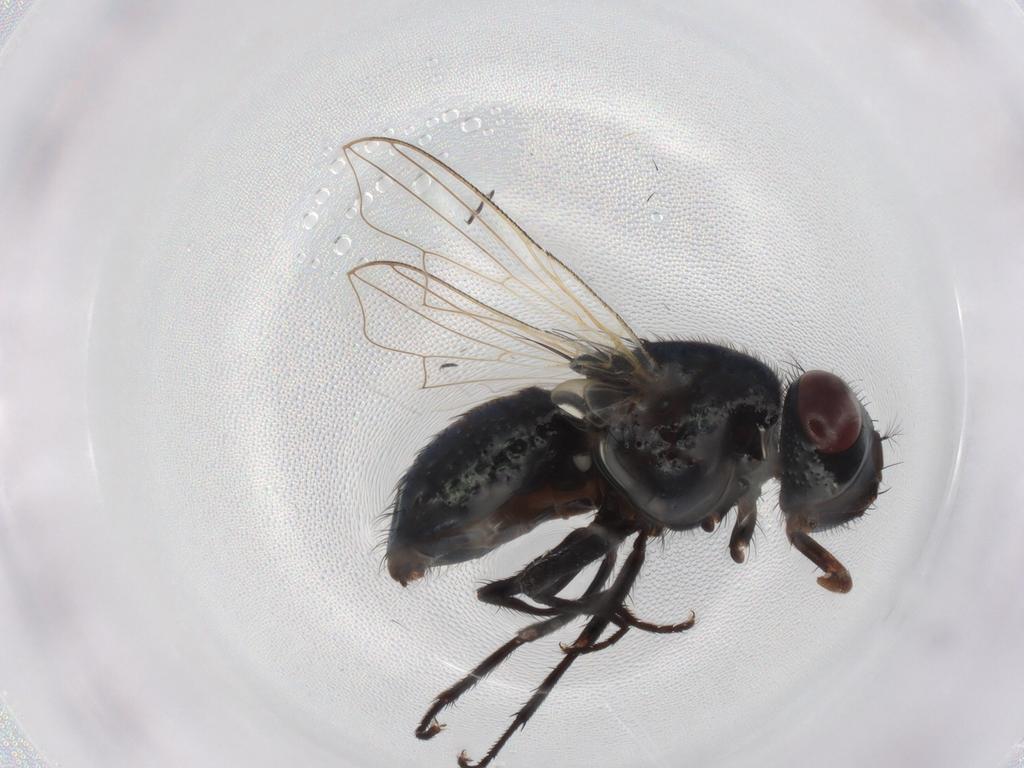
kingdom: Animalia
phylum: Arthropoda
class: Insecta
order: Diptera
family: Muscidae
